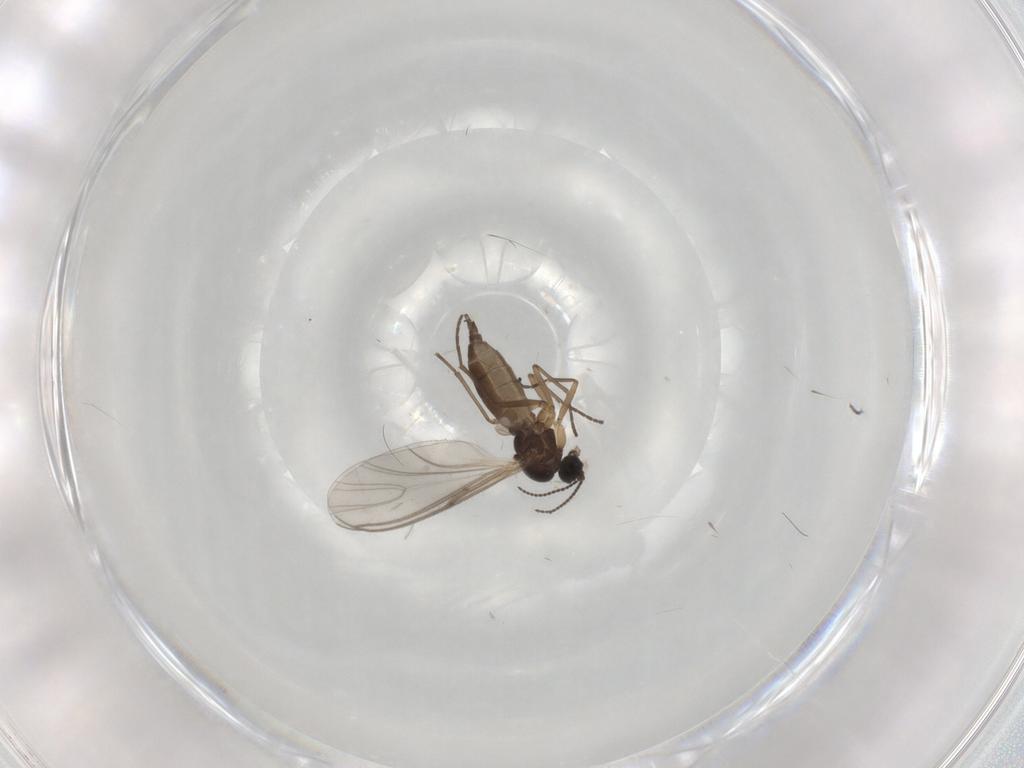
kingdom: Animalia
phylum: Arthropoda
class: Insecta
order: Diptera
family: Sciaridae
